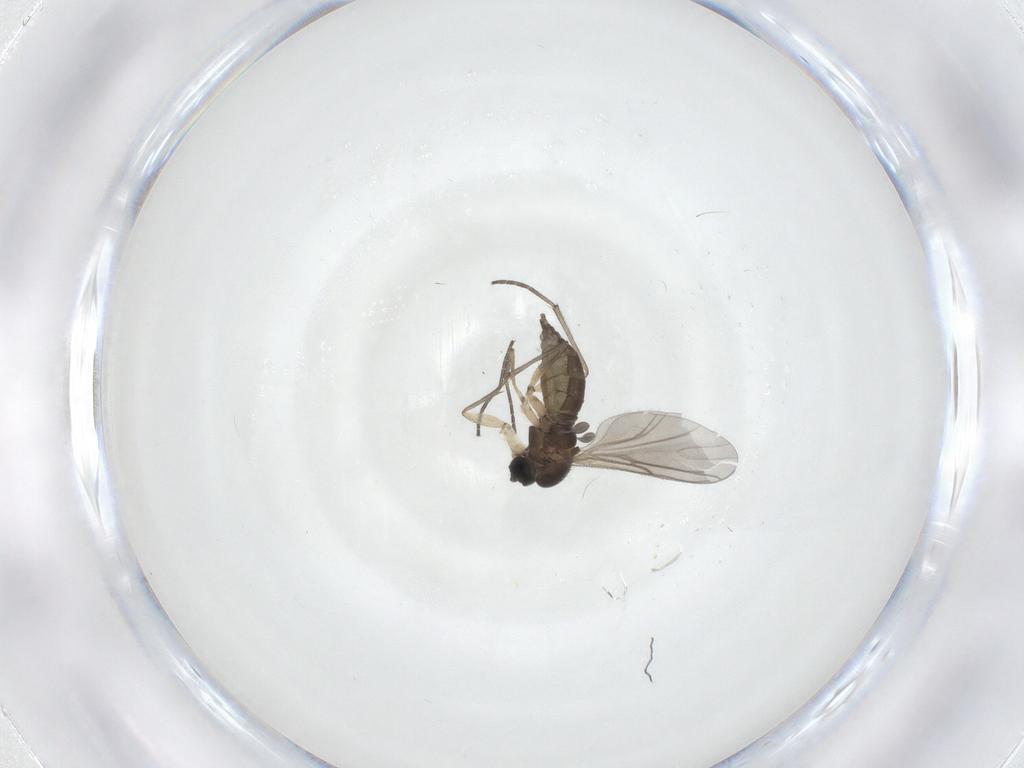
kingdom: Animalia
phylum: Arthropoda
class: Insecta
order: Diptera
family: Sciaridae
